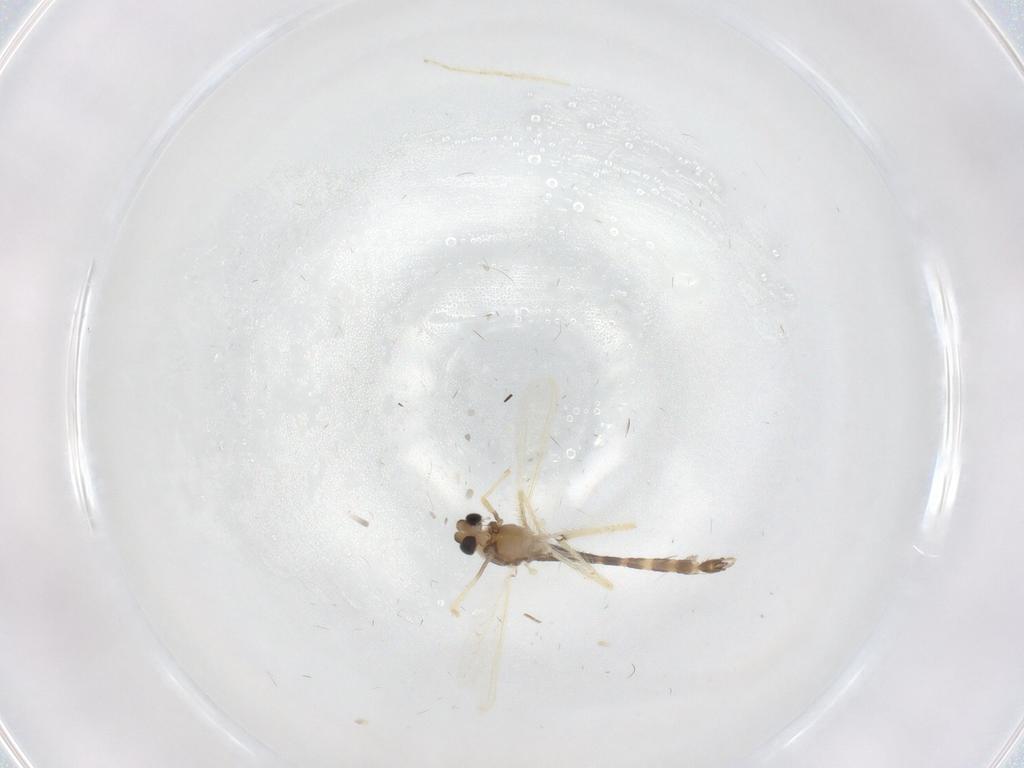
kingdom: Animalia
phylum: Arthropoda
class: Insecta
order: Diptera
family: Chironomidae
